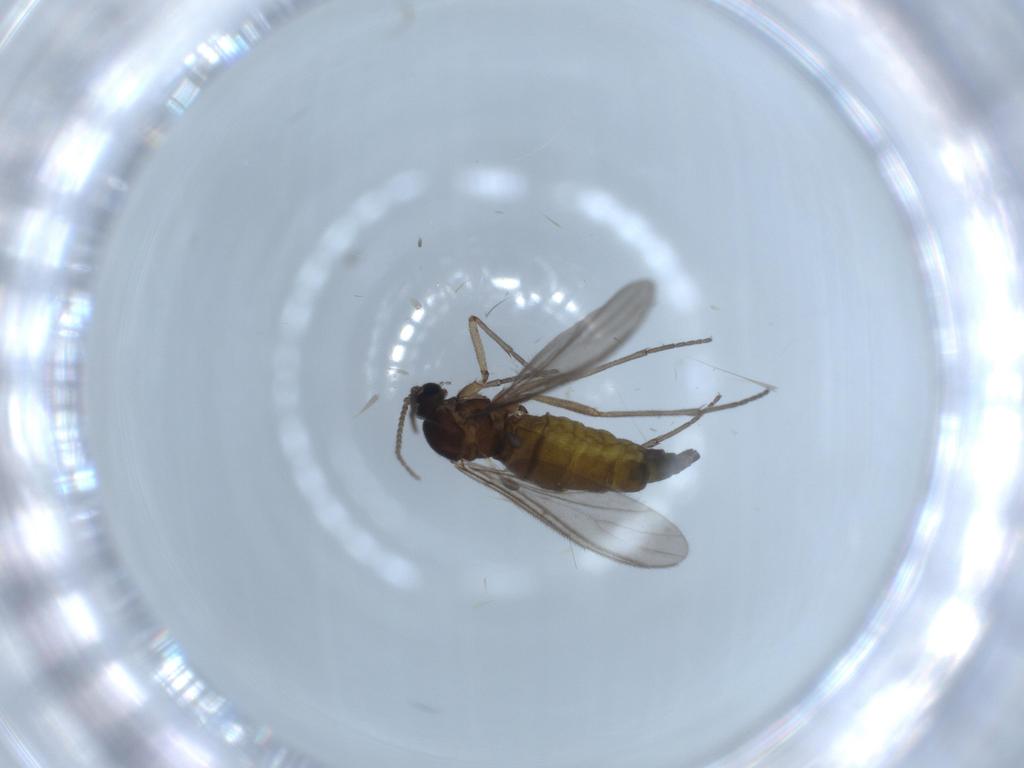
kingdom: Animalia
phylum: Arthropoda
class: Insecta
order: Diptera
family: Sciaridae
